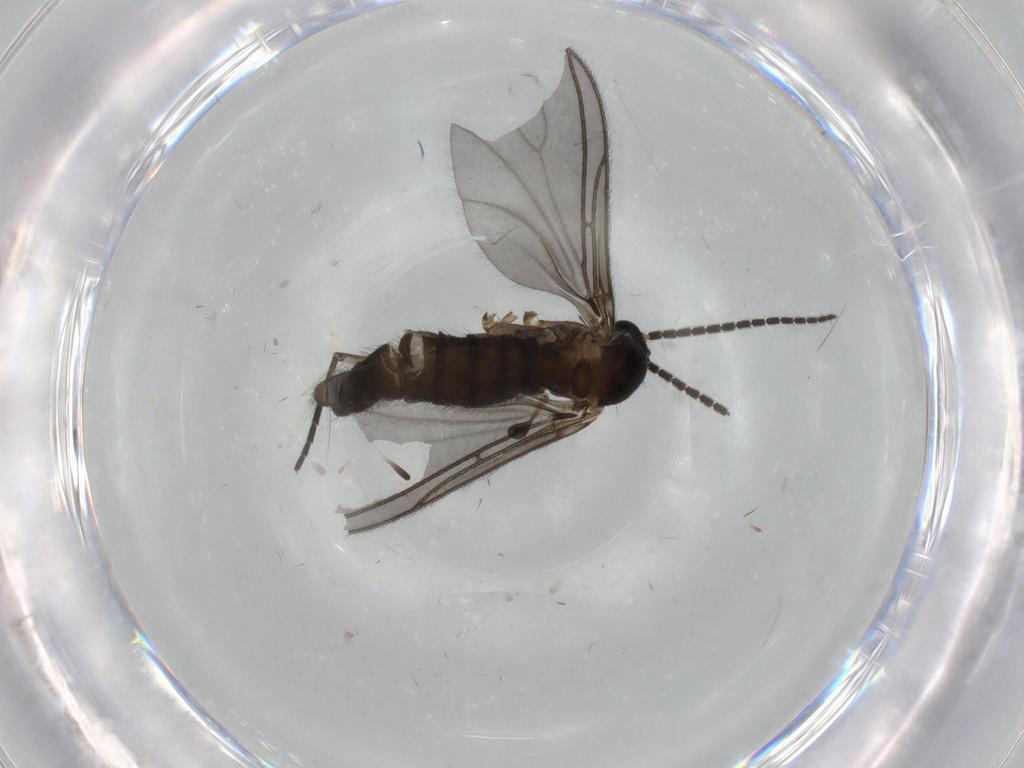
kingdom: Animalia
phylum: Arthropoda
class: Insecta
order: Diptera
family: Sciaridae
